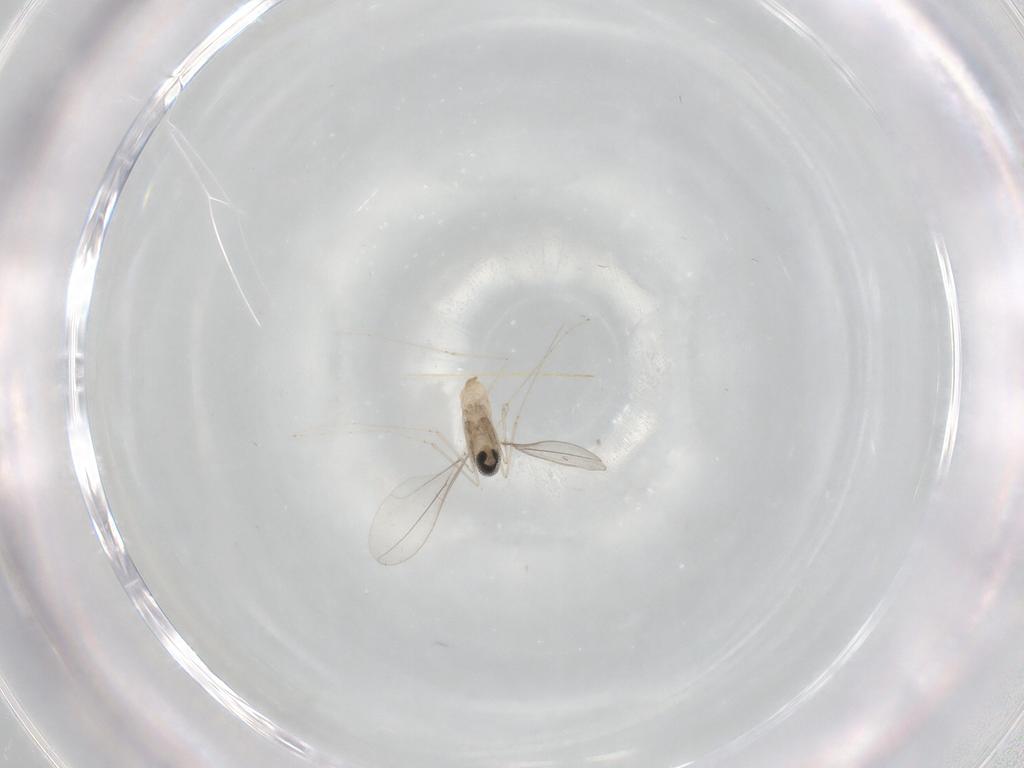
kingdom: Animalia
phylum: Arthropoda
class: Insecta
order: Diptera
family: Cecidomyiidae
